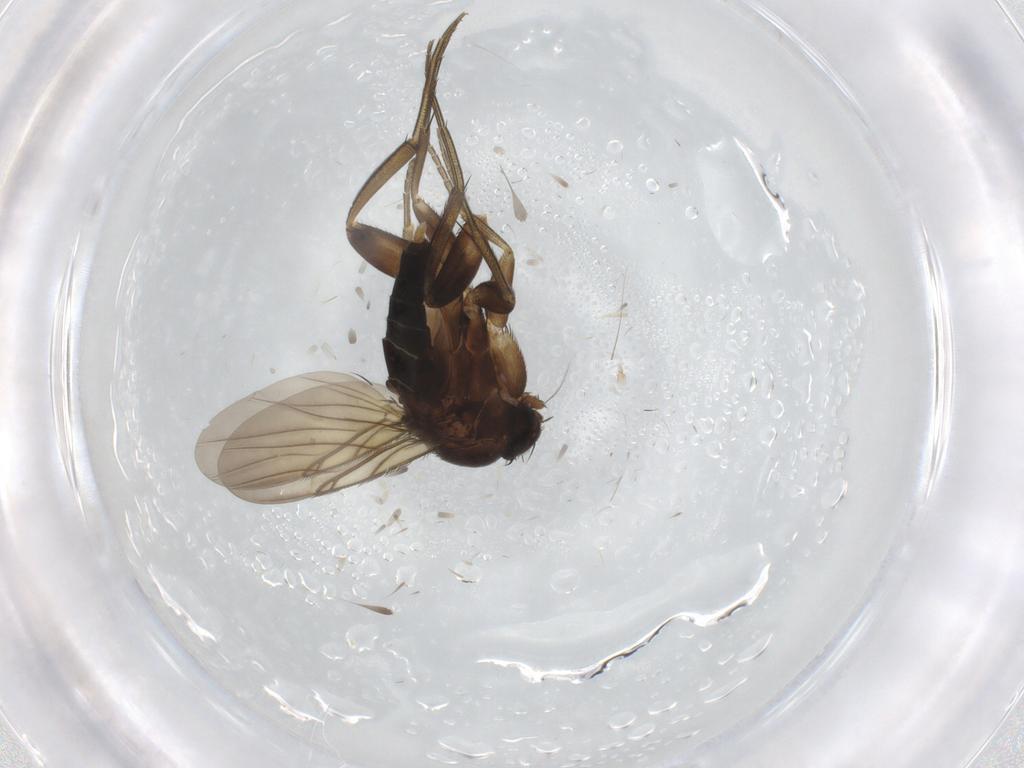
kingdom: Animalia
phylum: Arthropoda
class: Insecta
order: Diptera
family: Phoridae
